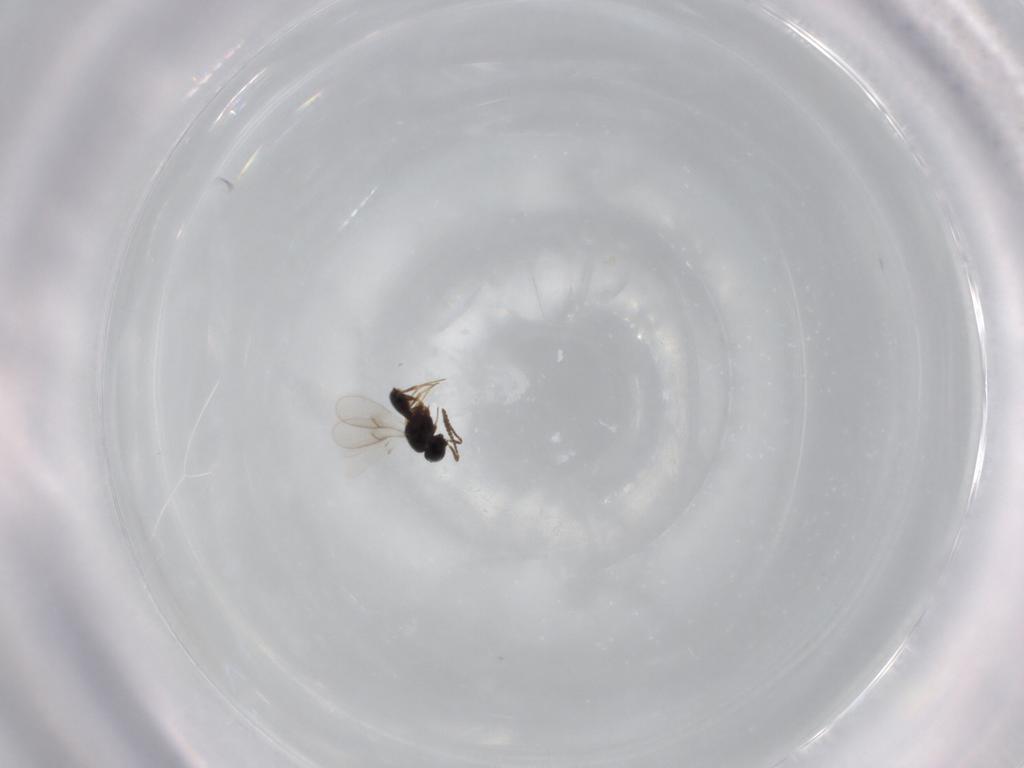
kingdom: Animalia
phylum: Arthropoda
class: Insecta
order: Hymenoptera
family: Scelionidae
